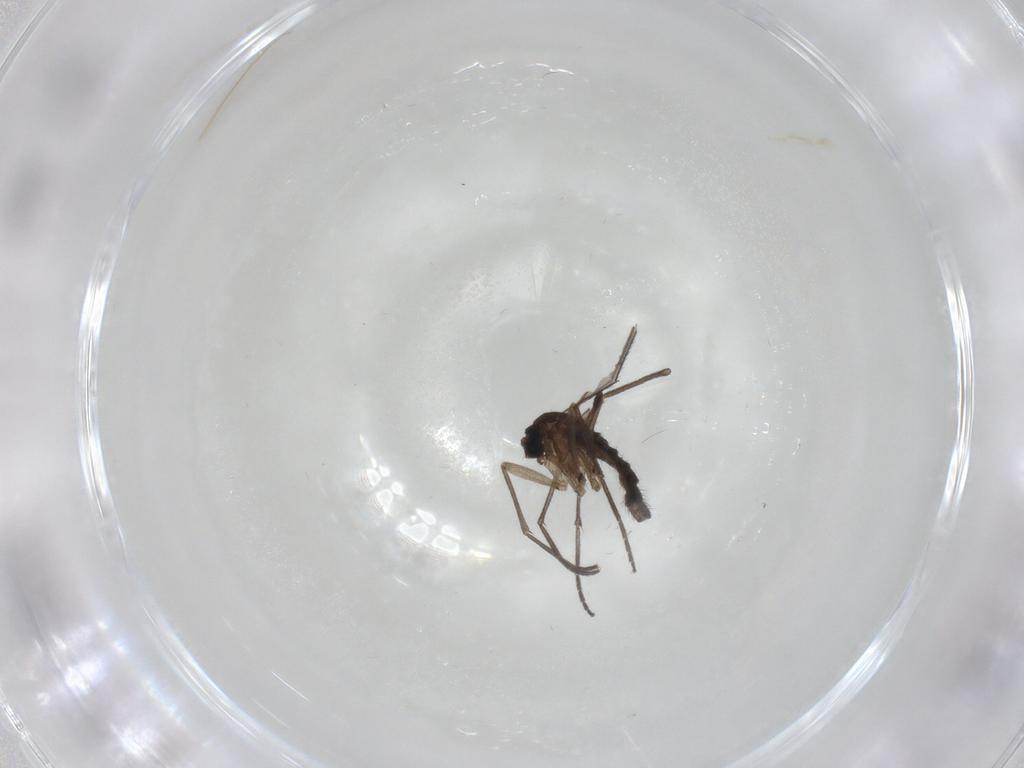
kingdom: Animalia
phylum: Arthropoda
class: Insecta
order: Diptera
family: Sciaridae
